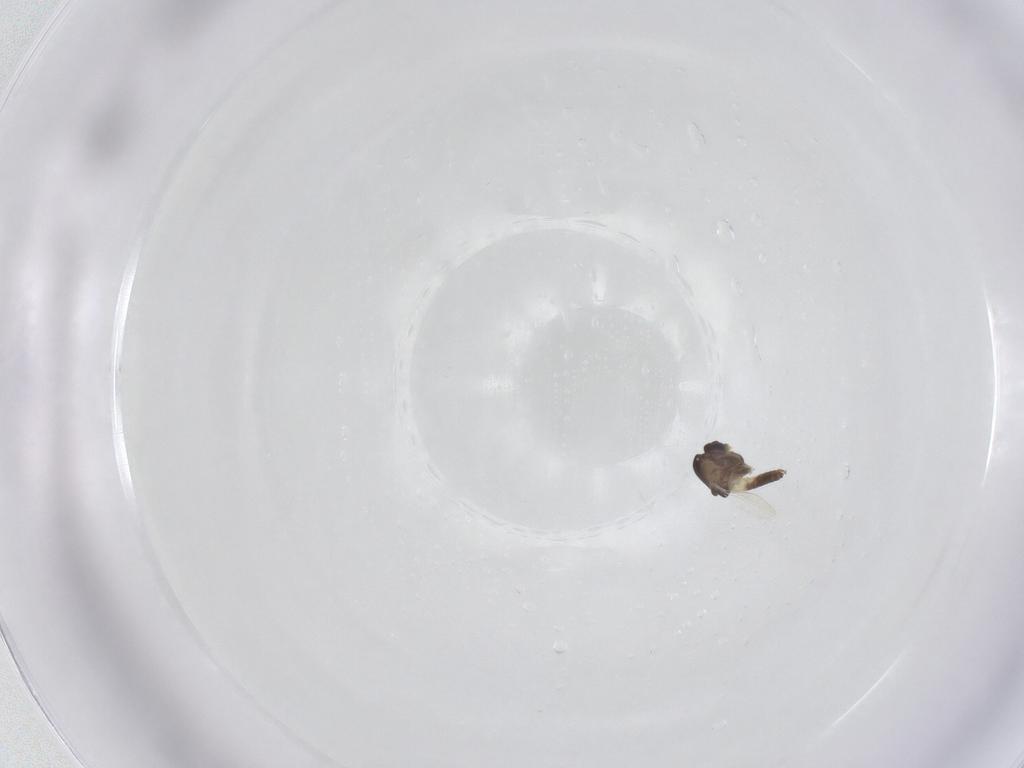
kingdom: Animalia
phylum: Arthropoda
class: Insecta
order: Diptera
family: Chironomidae
